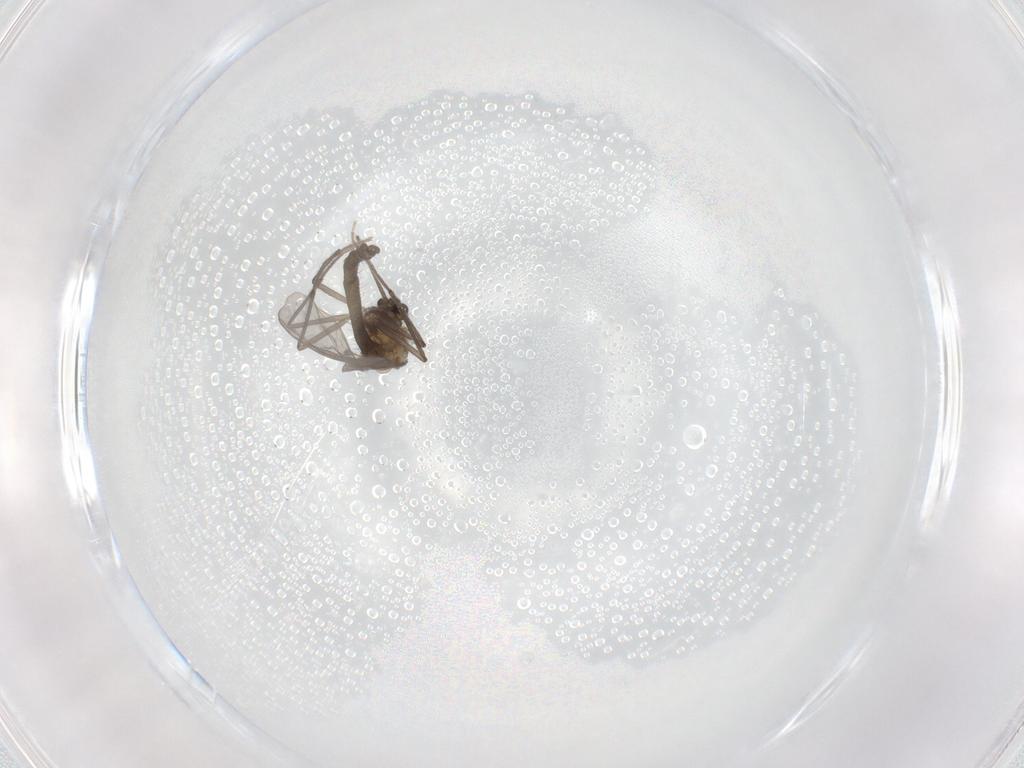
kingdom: Animalia
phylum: Arthropoda
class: Insecta
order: Diptera
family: Chironomidae
